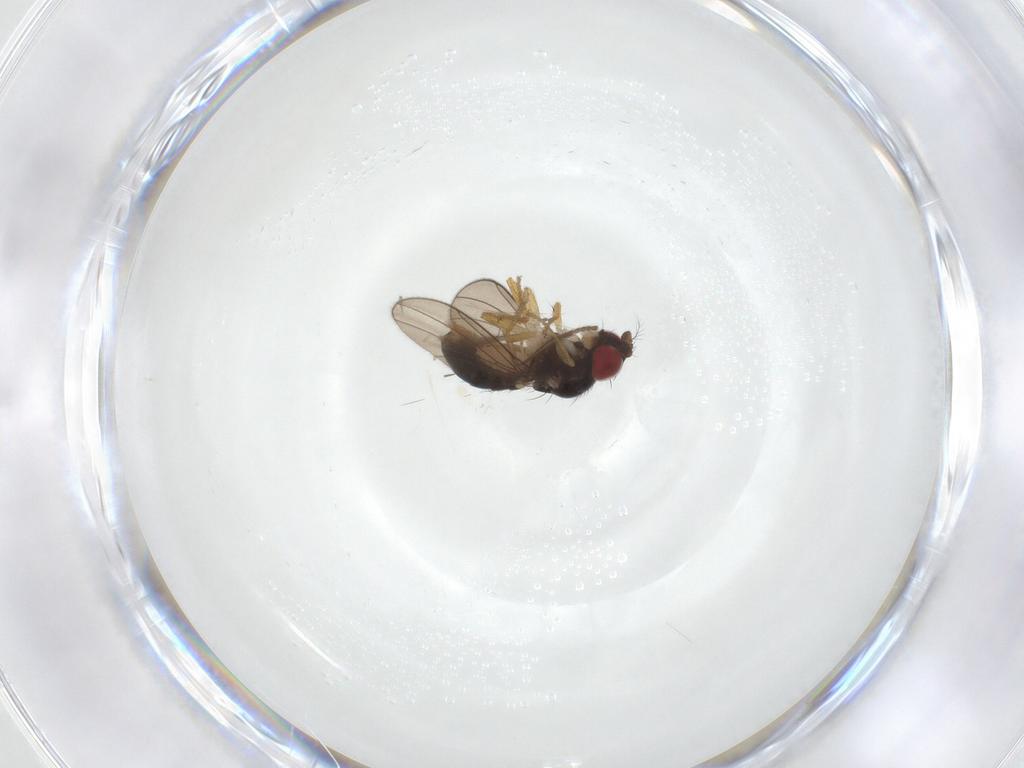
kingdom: Animalia
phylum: Arthropoda
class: Insecta
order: Diptera
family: Drosophilidae
